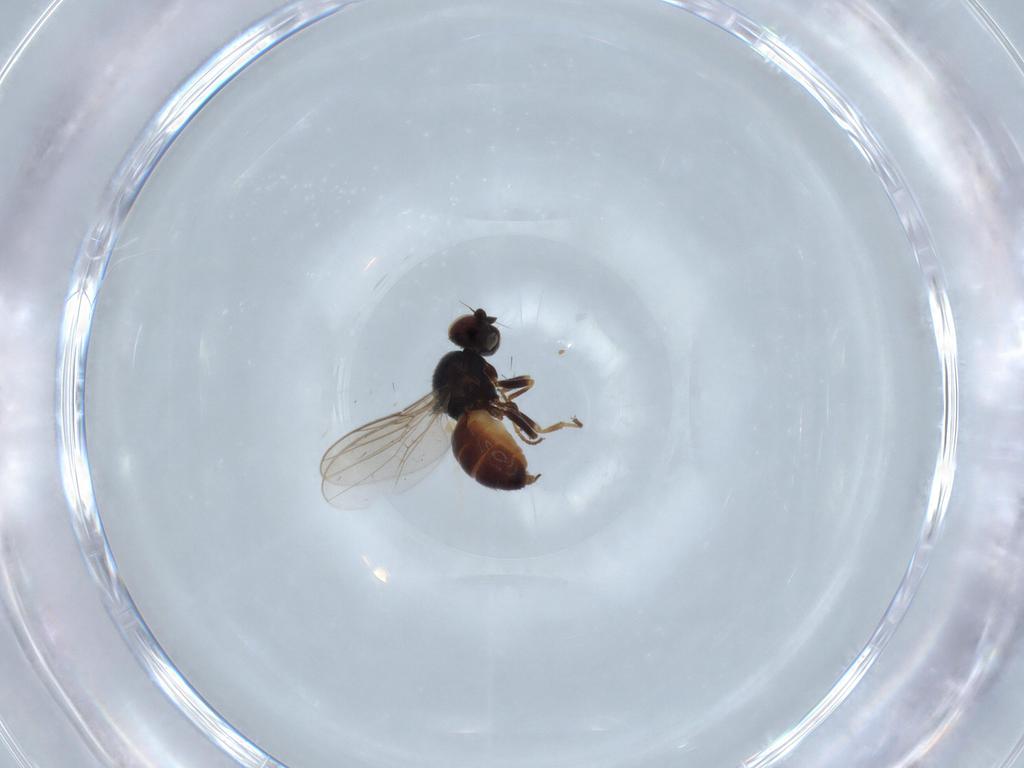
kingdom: Animalia
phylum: Arthropoda
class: Insecta
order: Diptera
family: Chloropidae
